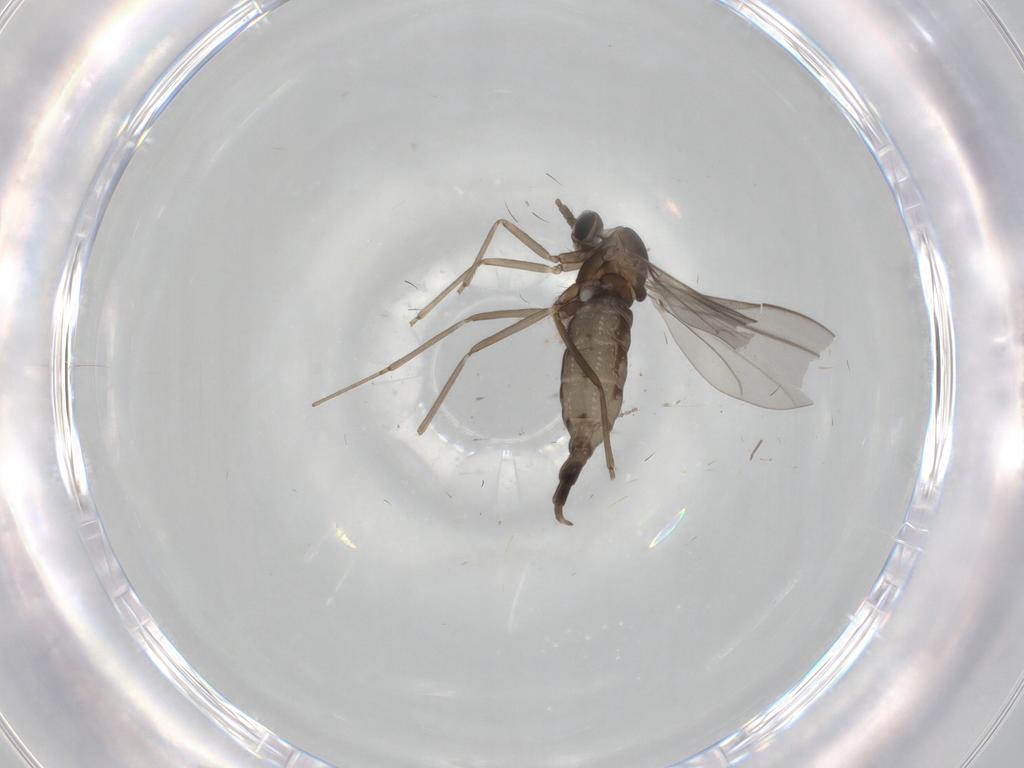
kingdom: Animalia
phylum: Arthropoda
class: Insecta
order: Diptera
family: Cecidomyiidae
